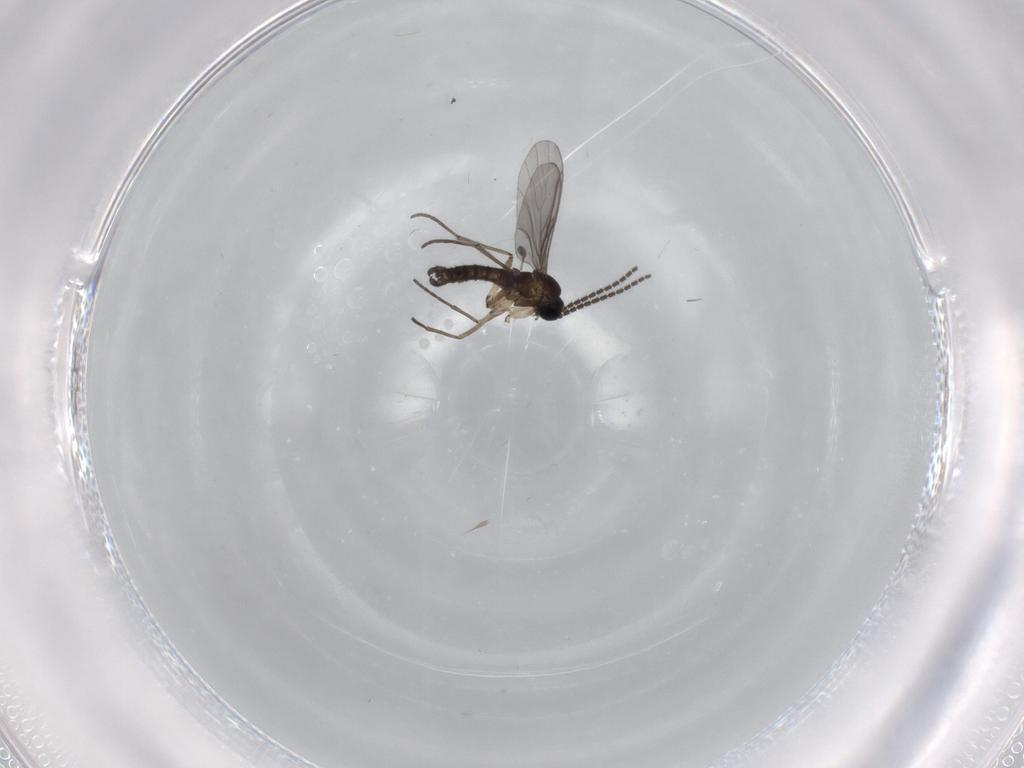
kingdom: Animalia
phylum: Arthropoda
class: Insecta
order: Diptera
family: Sciaridae
